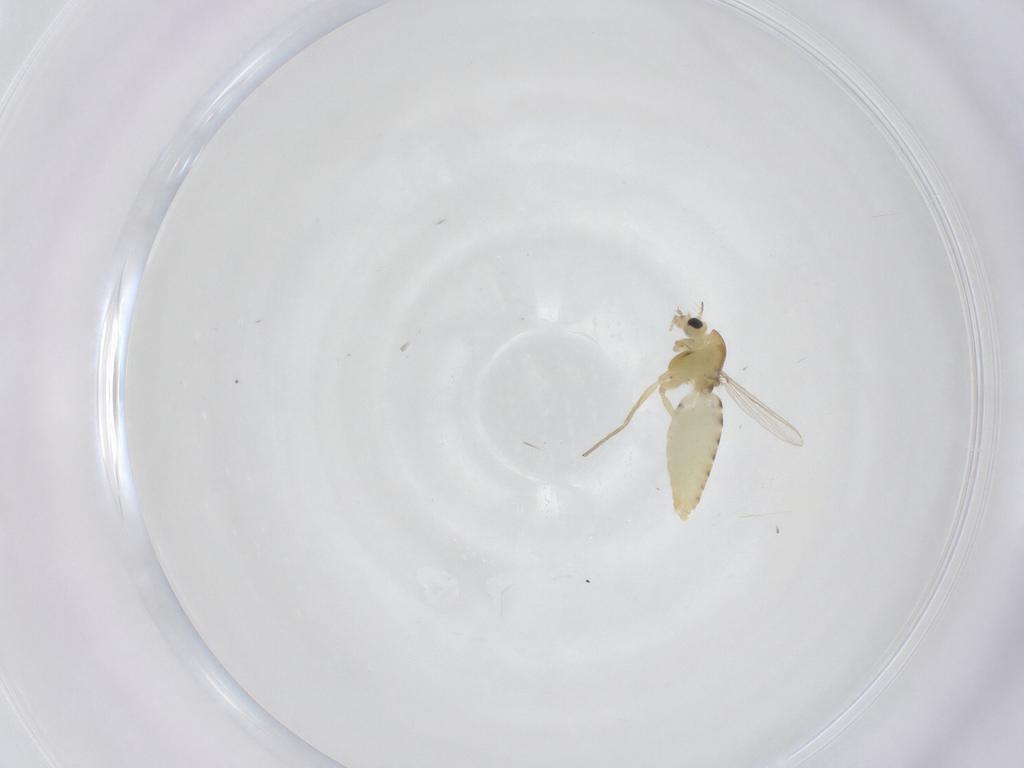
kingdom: Animalia
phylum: Arthropoda
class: Insecta
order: Diptera
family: Chironomidae
